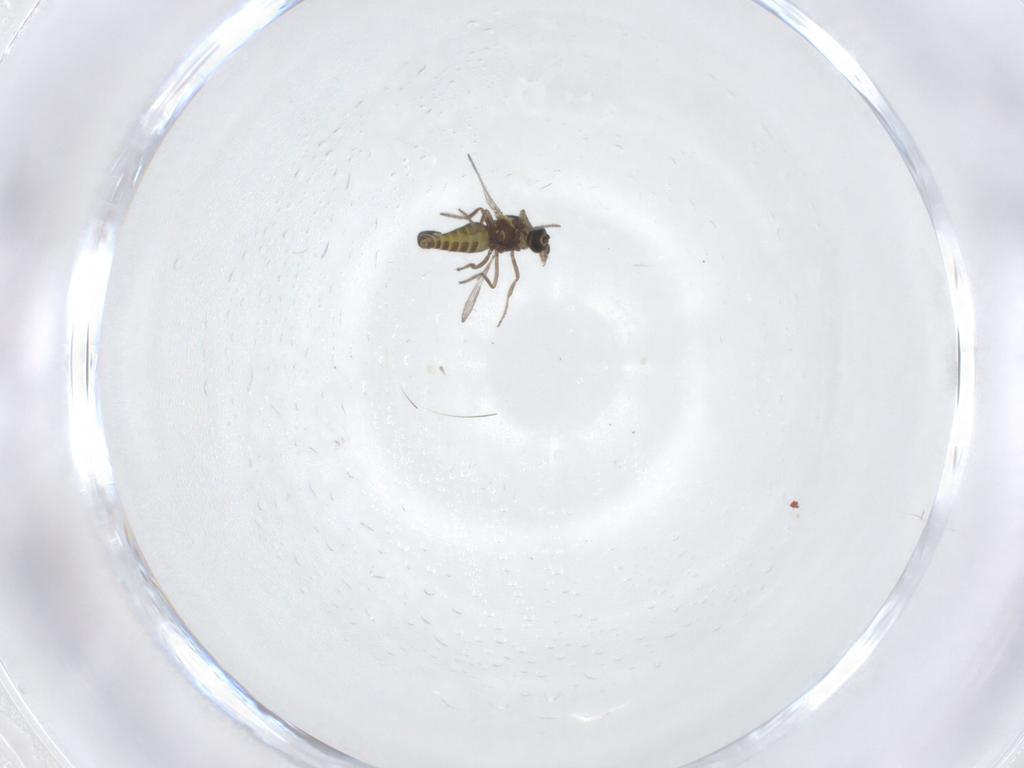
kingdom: Animalia
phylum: Arthropoda
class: Insecta
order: Diptera
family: Ceratopogonidae
